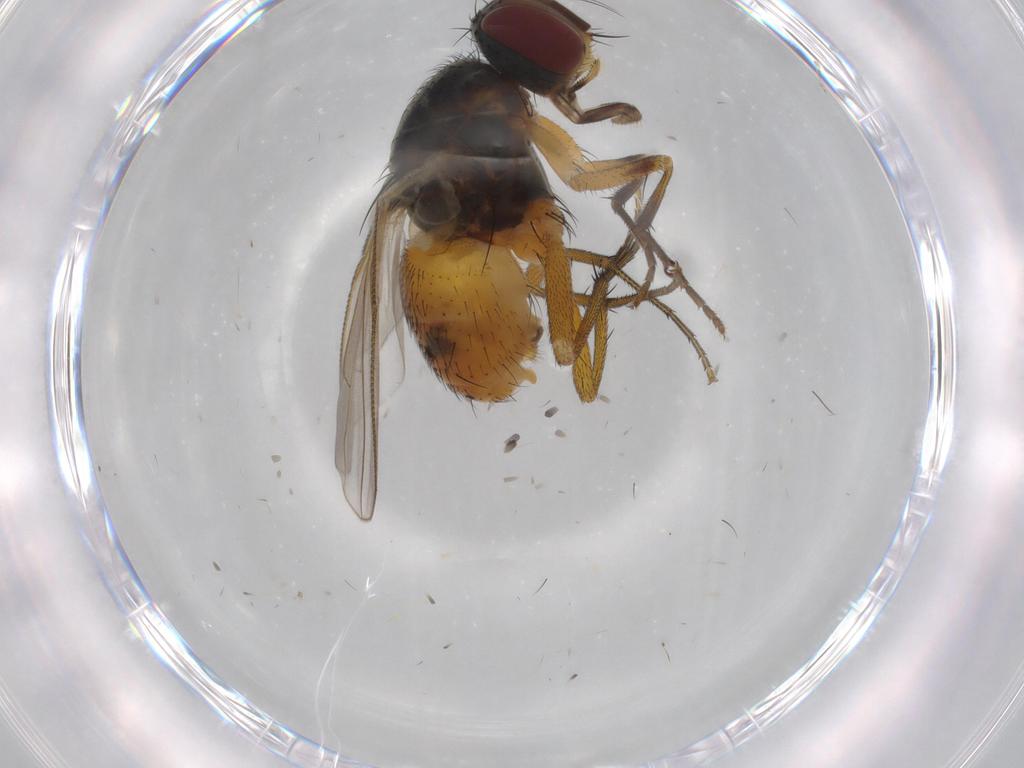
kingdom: Animalia
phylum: Arthropoda
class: Insecta
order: Diptera
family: Muscidae
